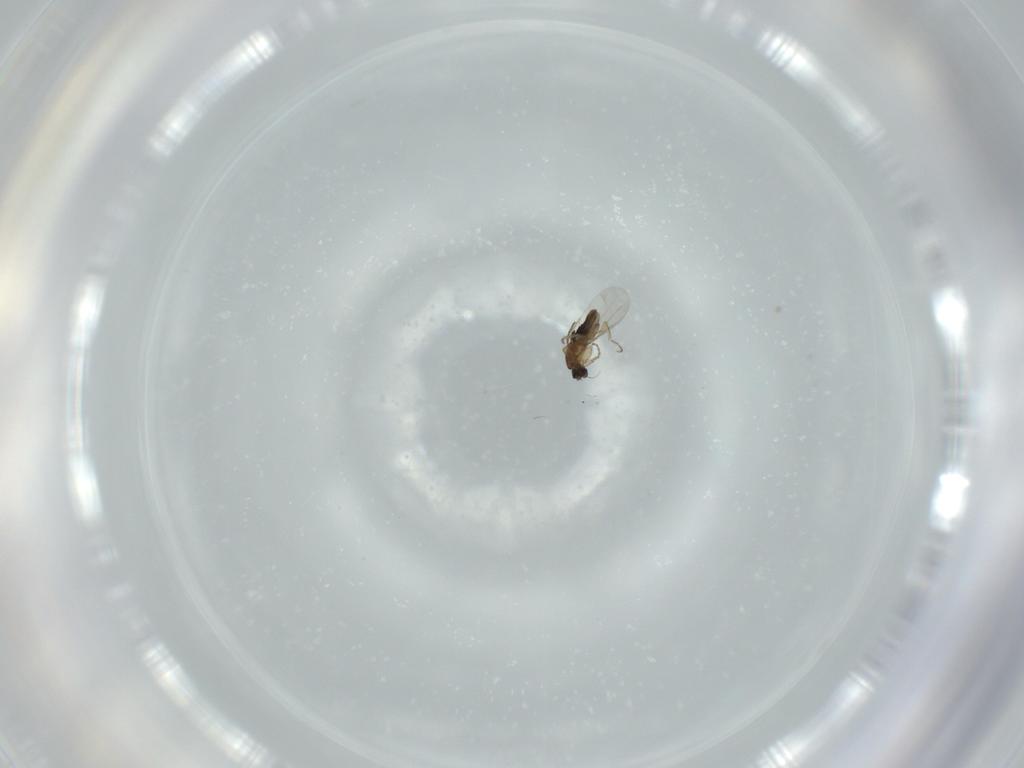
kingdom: Animalia
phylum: Arthropoda
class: Insecta
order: Diptera
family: Phoridae
